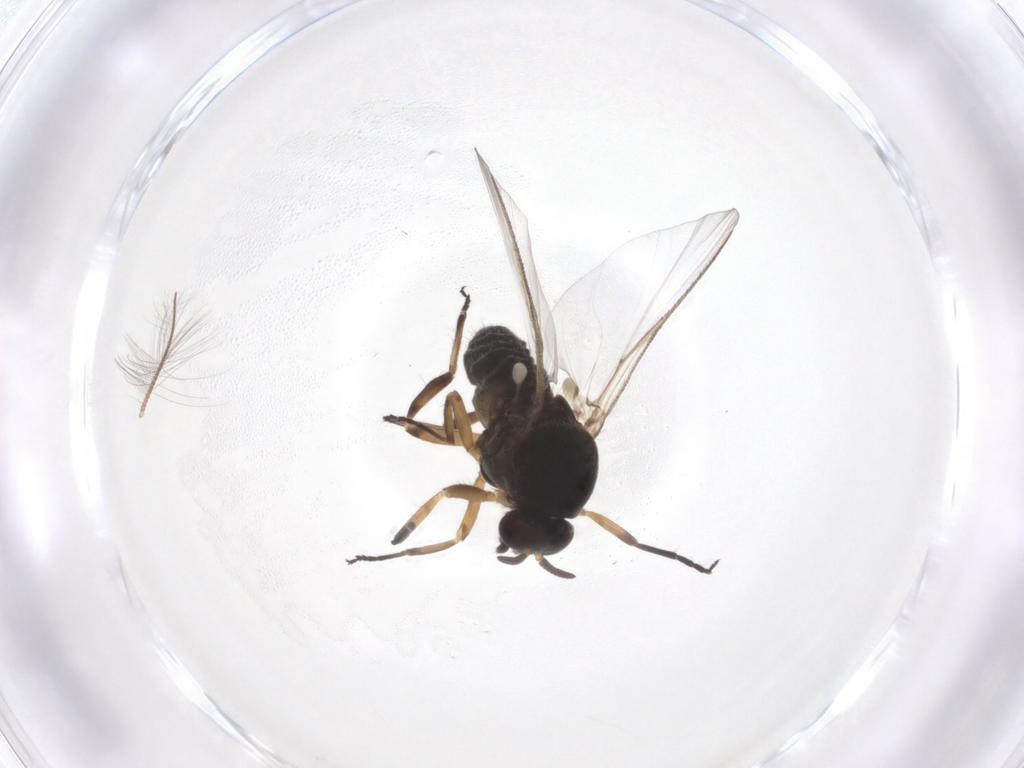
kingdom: Animalia
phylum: Arthropoda
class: Insecta
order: Diptera
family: Simuliidae
